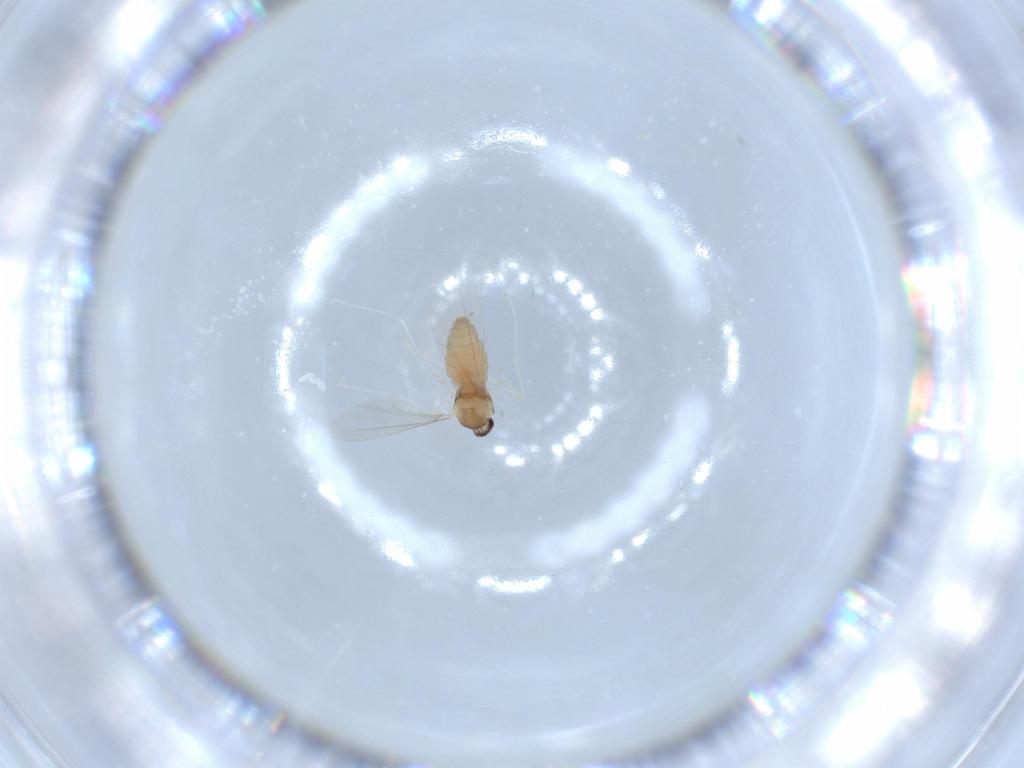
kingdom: Animalia
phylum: Arthropoda
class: Insecta
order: Diptera
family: Cecidomyiidae
